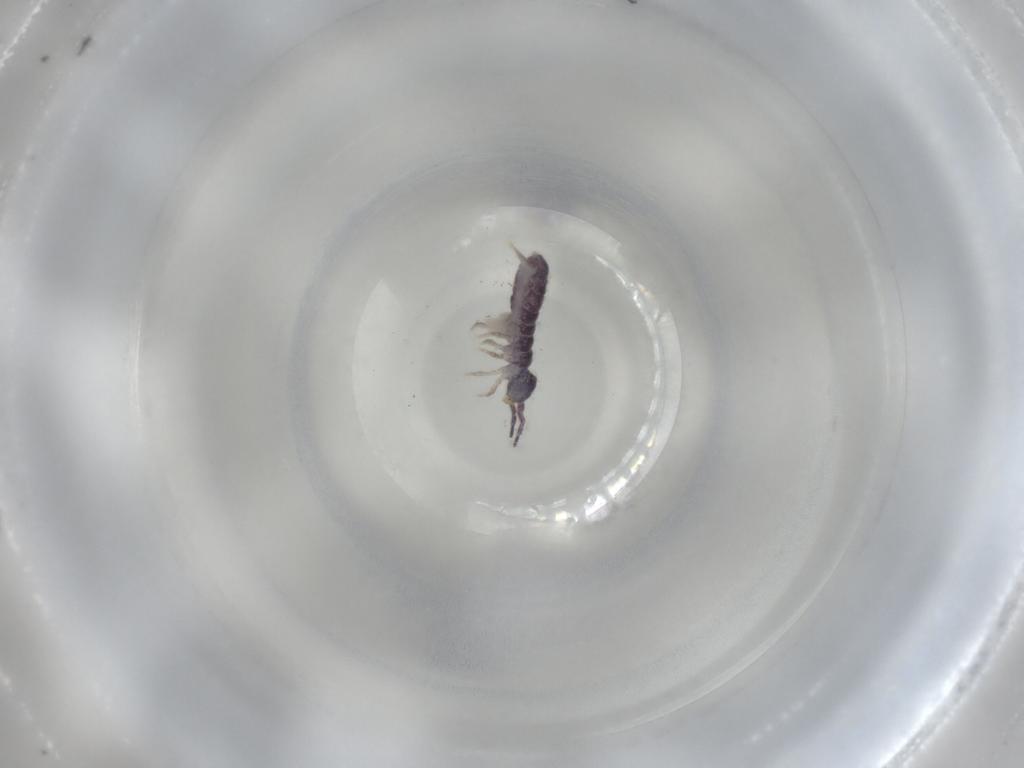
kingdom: Animalia
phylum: Arthropoda
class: Collembola
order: Entomobryomorpha
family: Isotomidae
